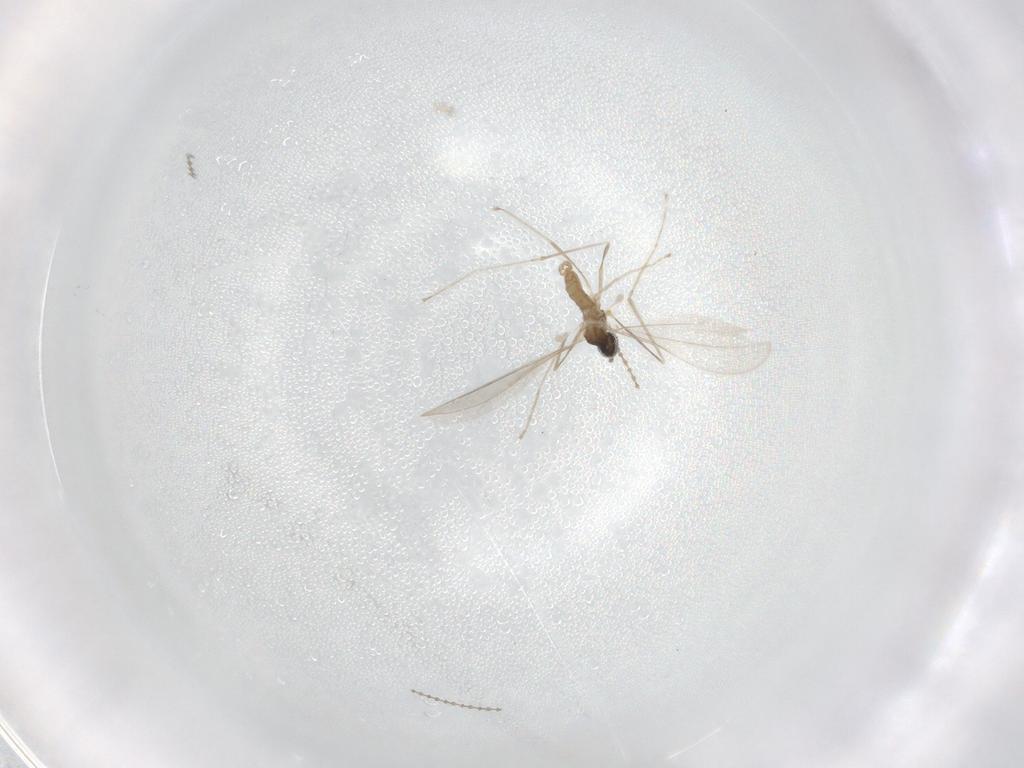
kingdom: Animalia
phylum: Arthropoda
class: Insecta
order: Diptera
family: Cecidomyiidae
